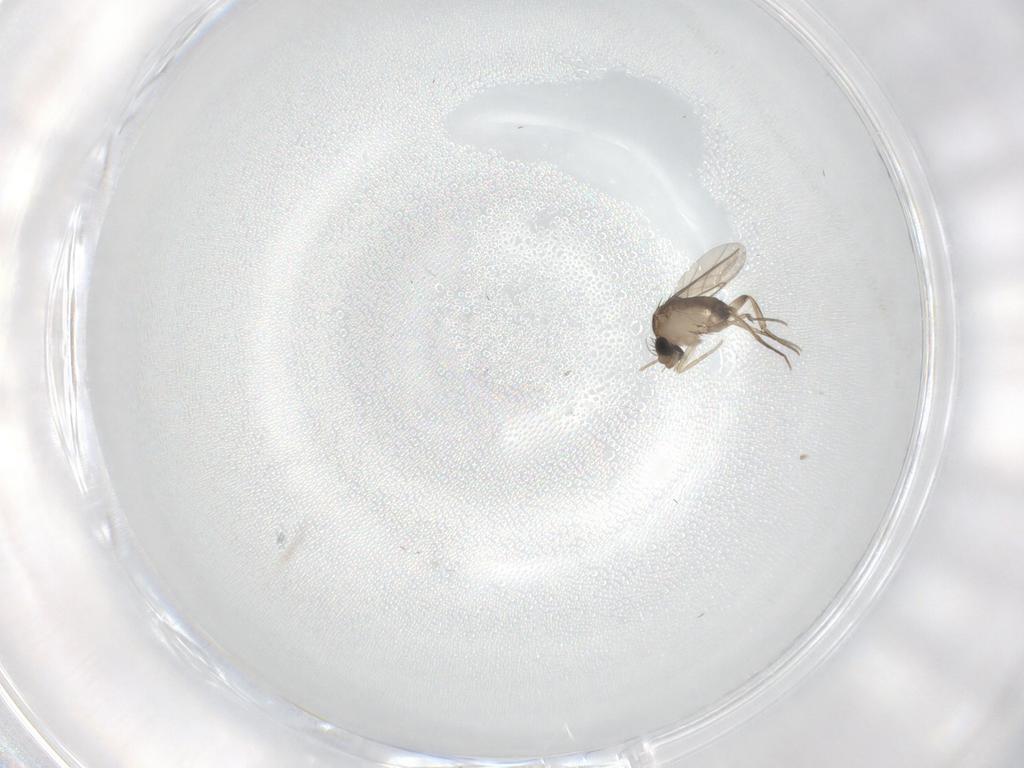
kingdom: Animalia
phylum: Arthropoda
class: Insecta
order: Diptera
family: Phoridae
